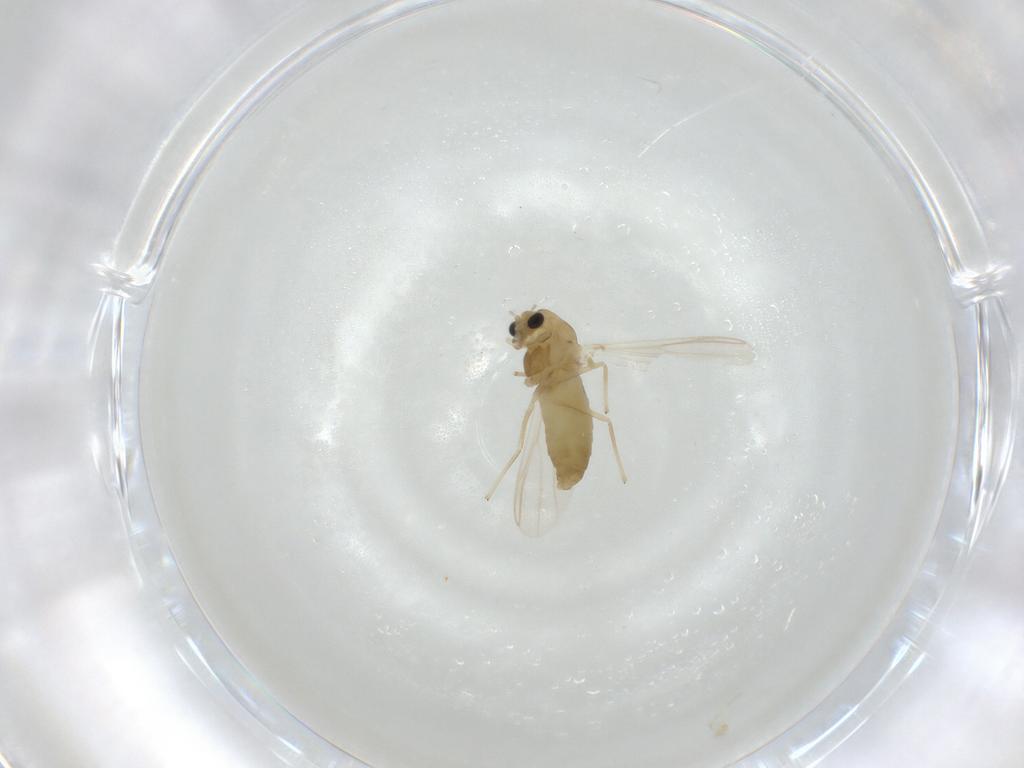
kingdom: Animalia
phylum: Arthropoda
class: Insecta
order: Diptera
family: Chironomidae
